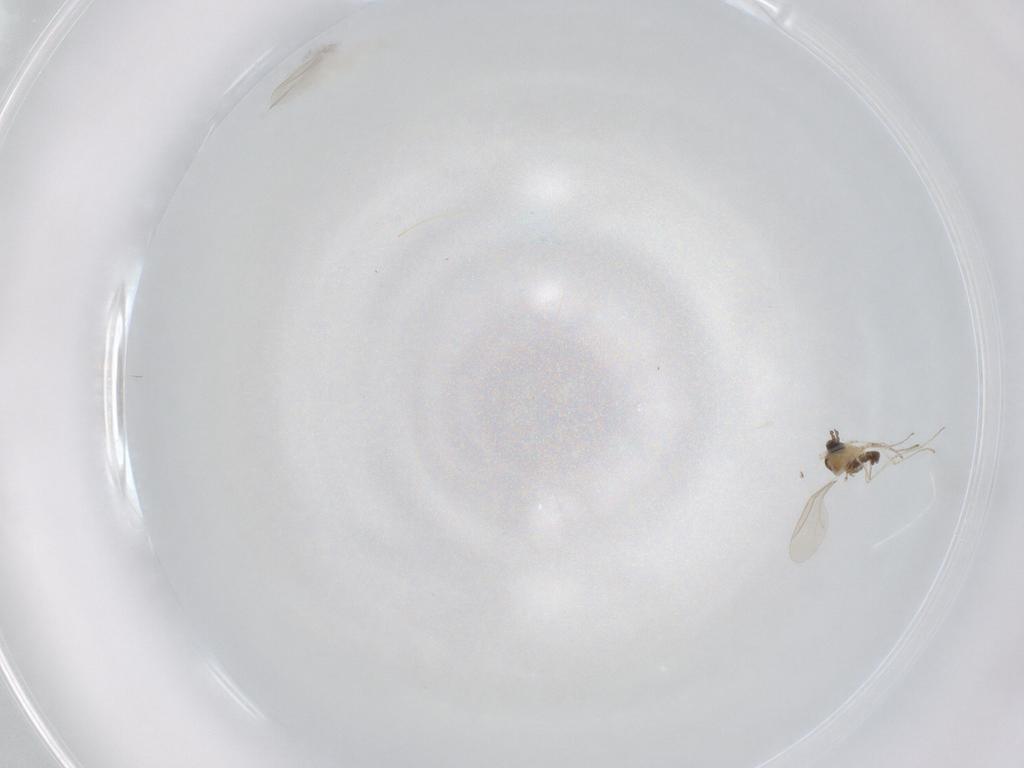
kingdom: Animalia
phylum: Arthropoda
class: Insecta
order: Diptera
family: Cecidomyiidae
